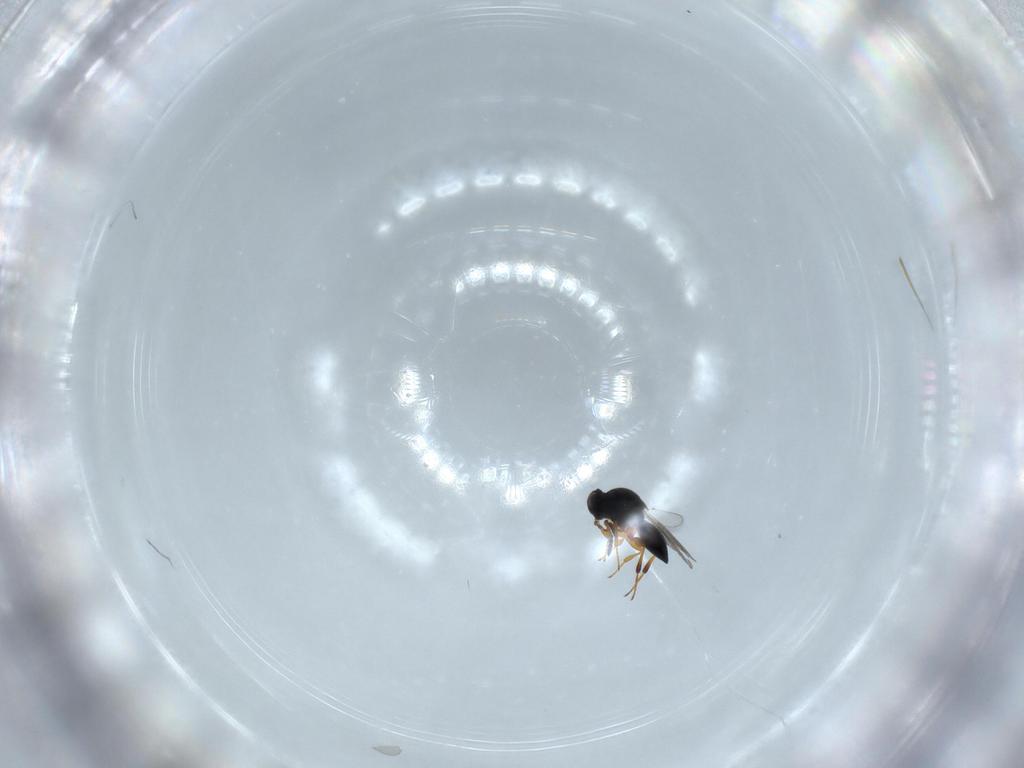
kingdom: Animalia
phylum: Arthropoda
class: Insecta
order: Hymenoptera
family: Platygastridae
